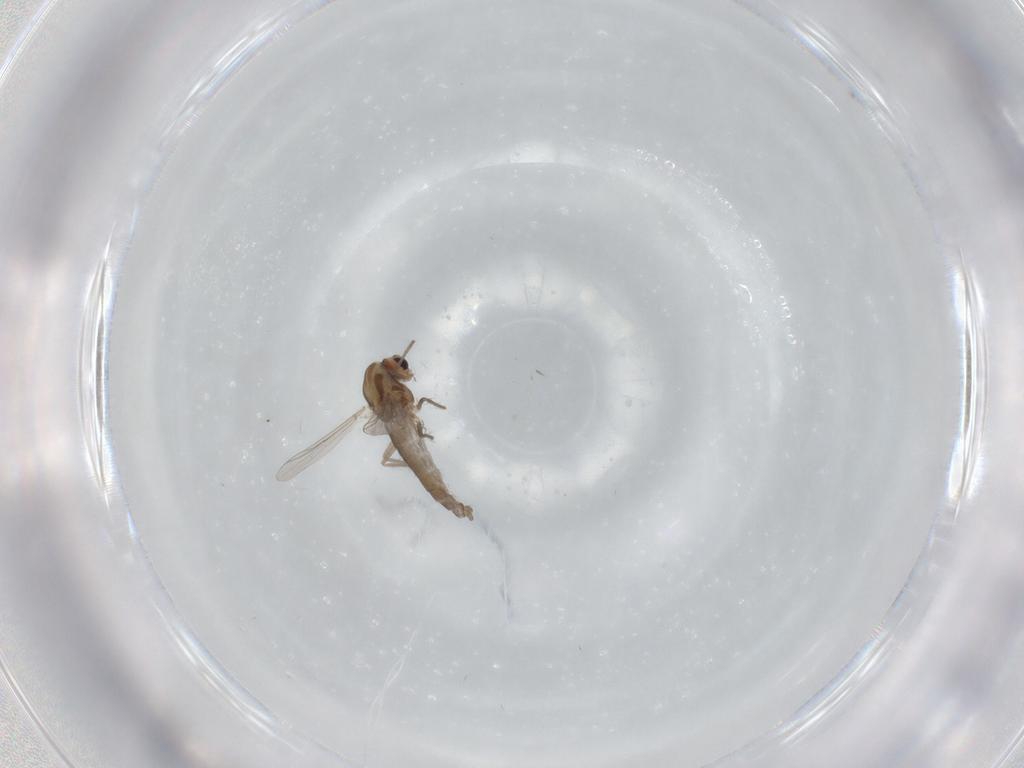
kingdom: Animalia
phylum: Arthropoda
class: Insecta
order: Diptera
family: Chironomidae
